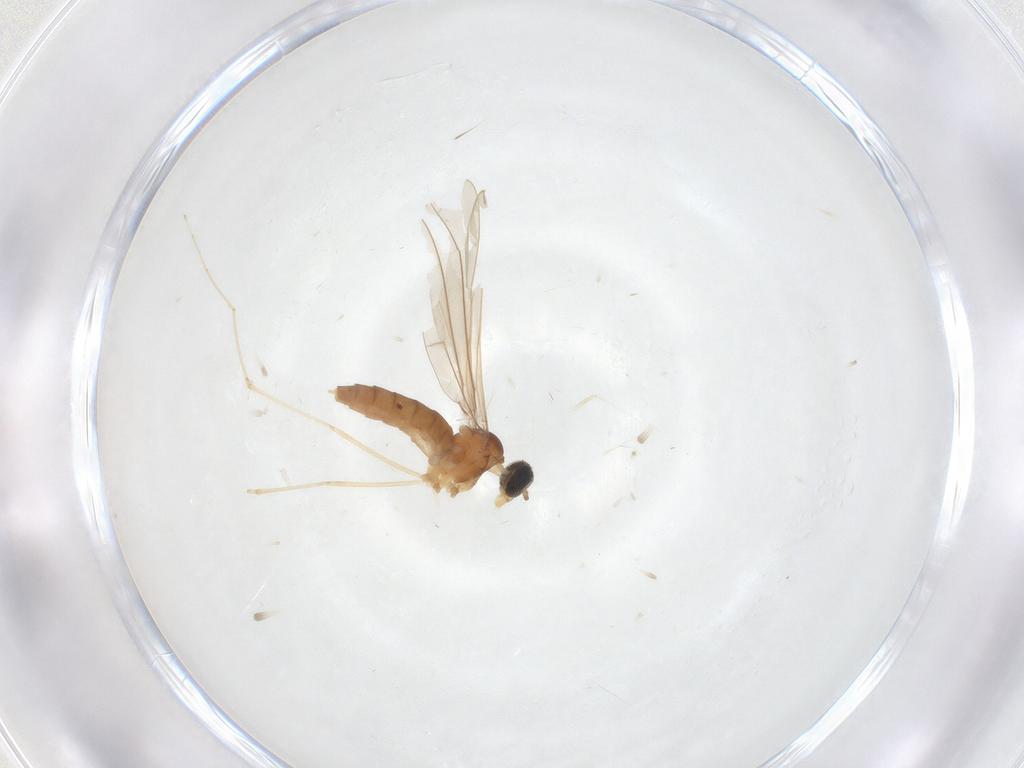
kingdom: Animalia
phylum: Arthropoda
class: Insecta
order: Diptera
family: Cecidomyiidae
